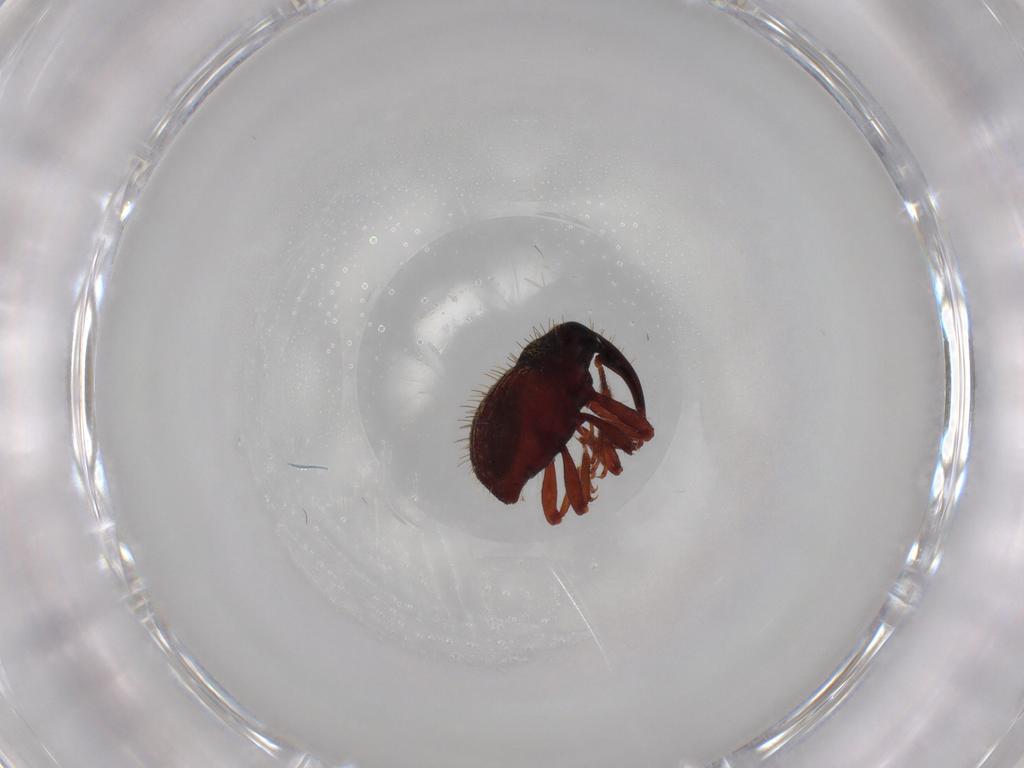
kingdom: Animalia
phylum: Arthropoda
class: Insecta
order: Coleoptera
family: Curculionidae
